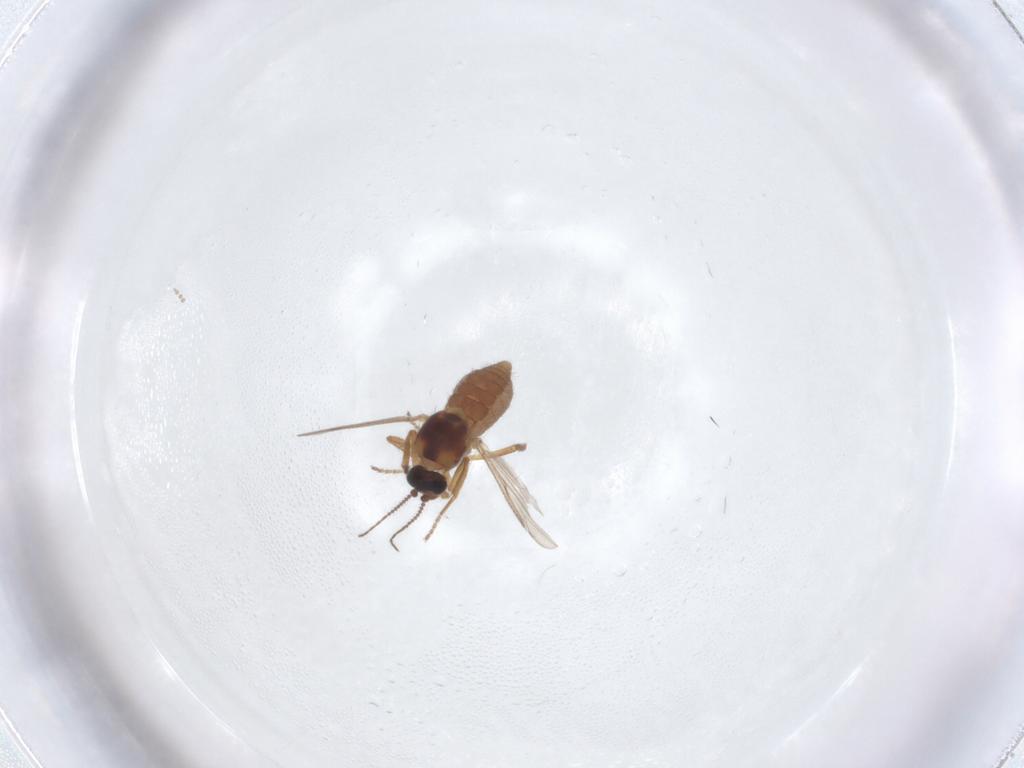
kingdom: Animalia
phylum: Arthropoda
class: Insecta
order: Diptera
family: Ceratopogonidae
